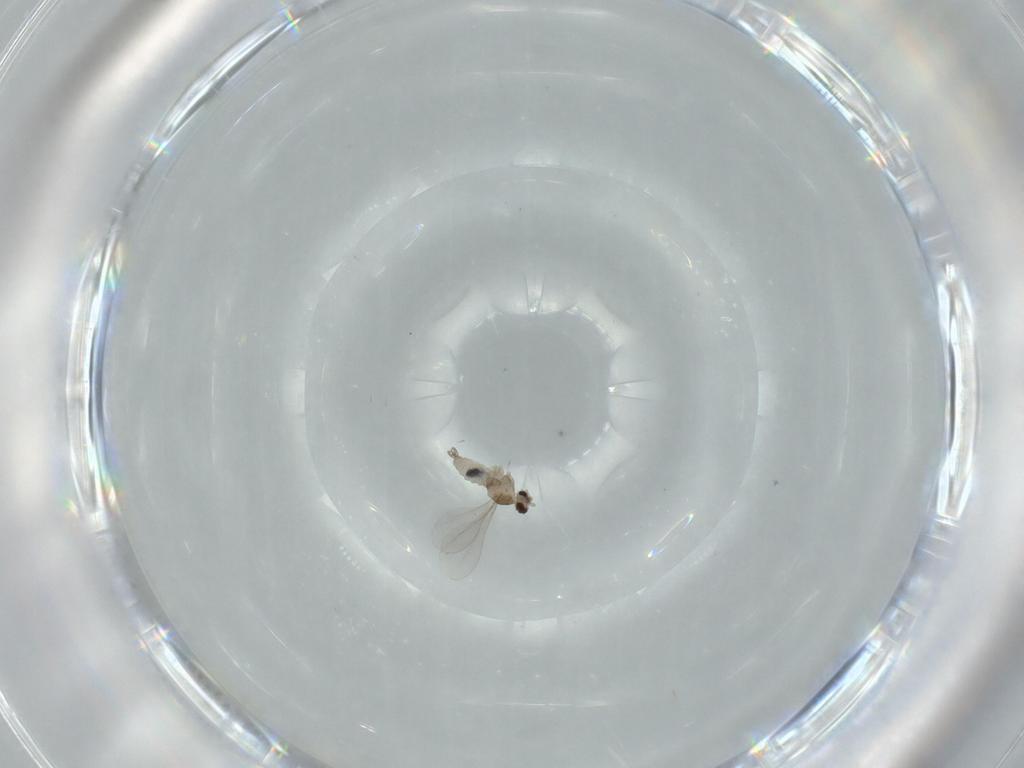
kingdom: Animalia
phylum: Arthropoda
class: Insecta
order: Diptera
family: Cecidomyiidae
